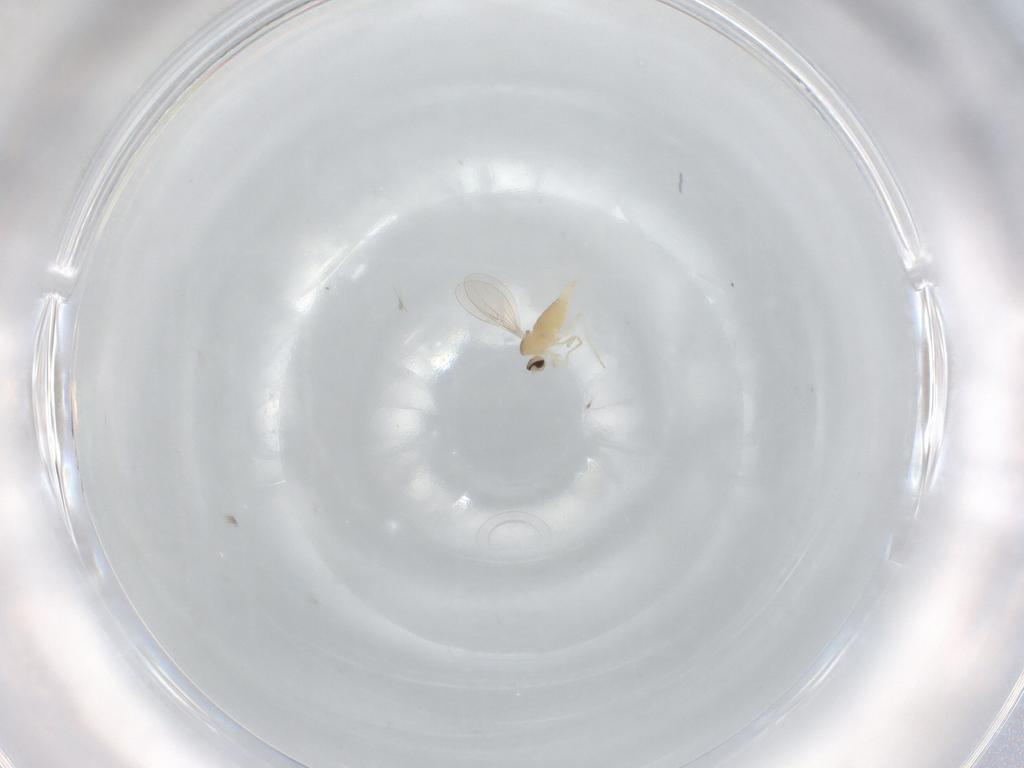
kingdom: Animalia
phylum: Arthropoda
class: Insecta
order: Diptera
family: Cecidomyiidae
